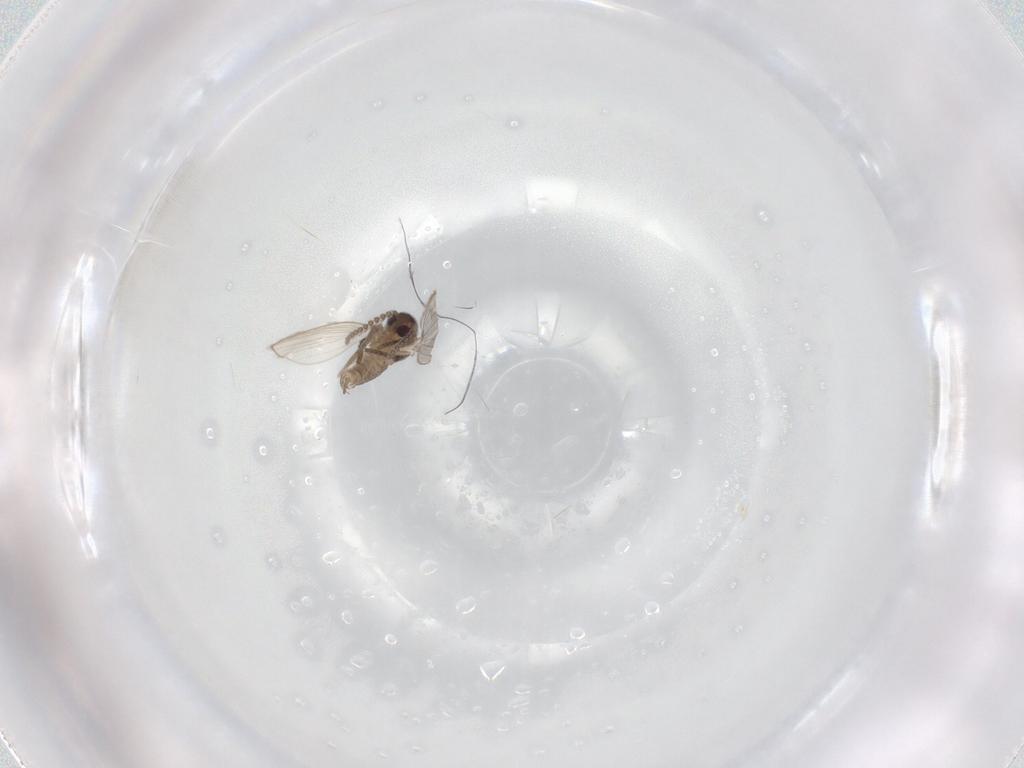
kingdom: Animalia
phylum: Arthropoda
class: Insecta
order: Diptera
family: Psychodidae
